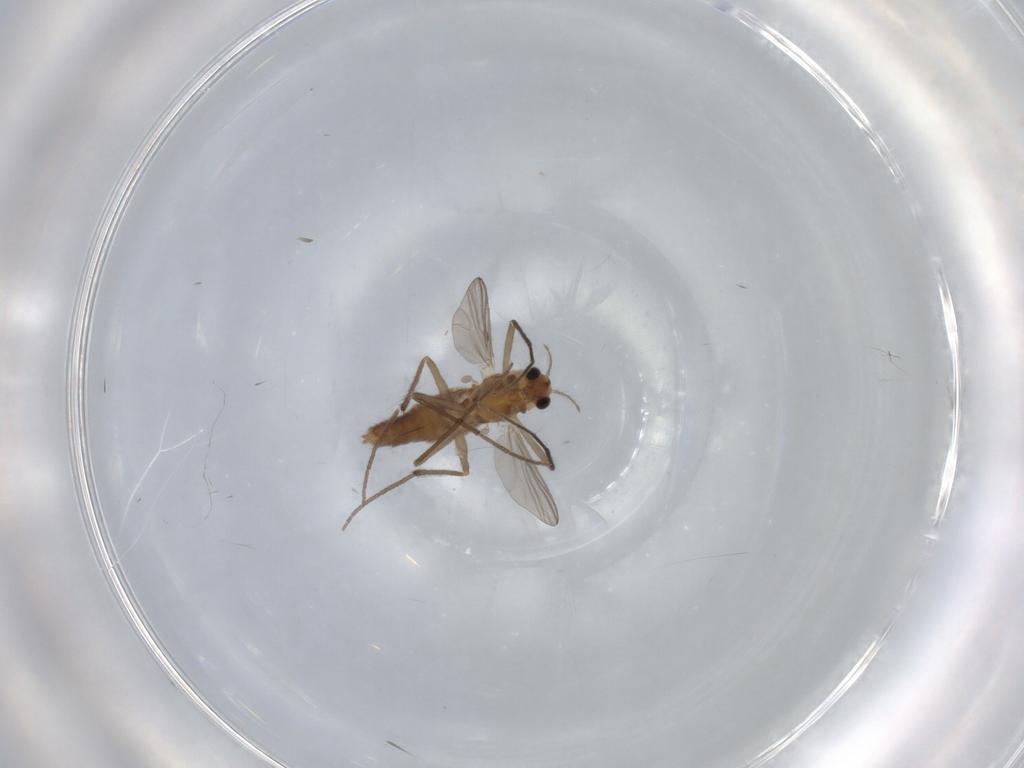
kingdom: Animalia
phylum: Arthropoda
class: Insecta
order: Diptera
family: Chironomidae
